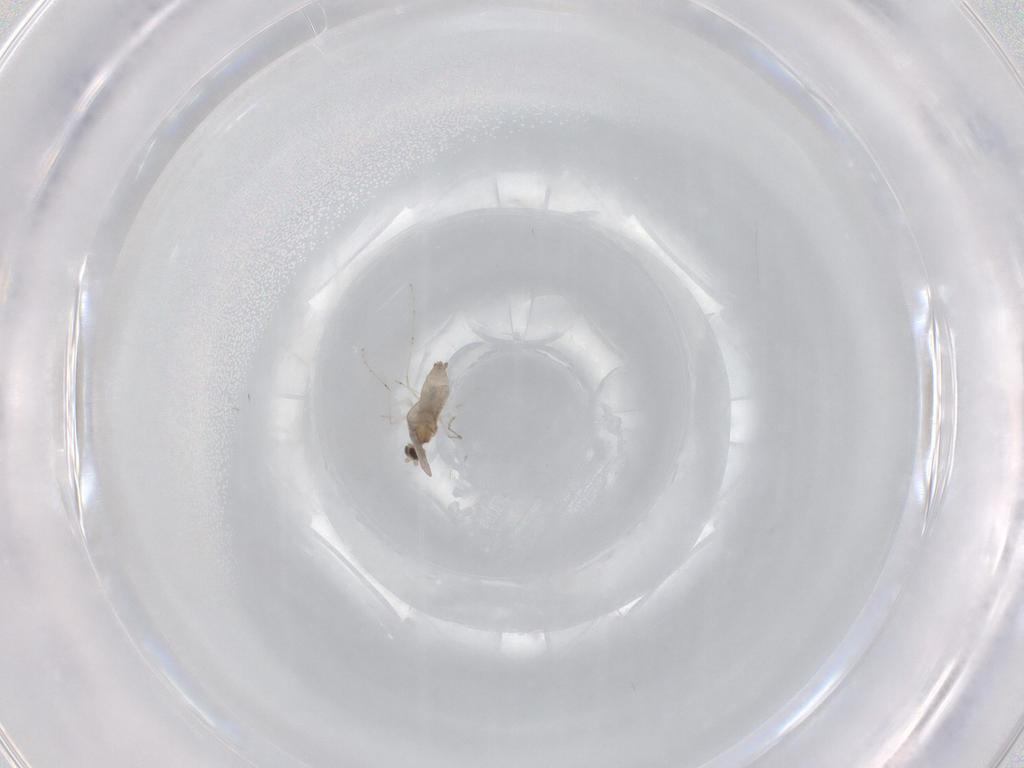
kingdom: Animalia
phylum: Arthropoda
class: Insecta
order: Diptera
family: Cecidomyiidae
